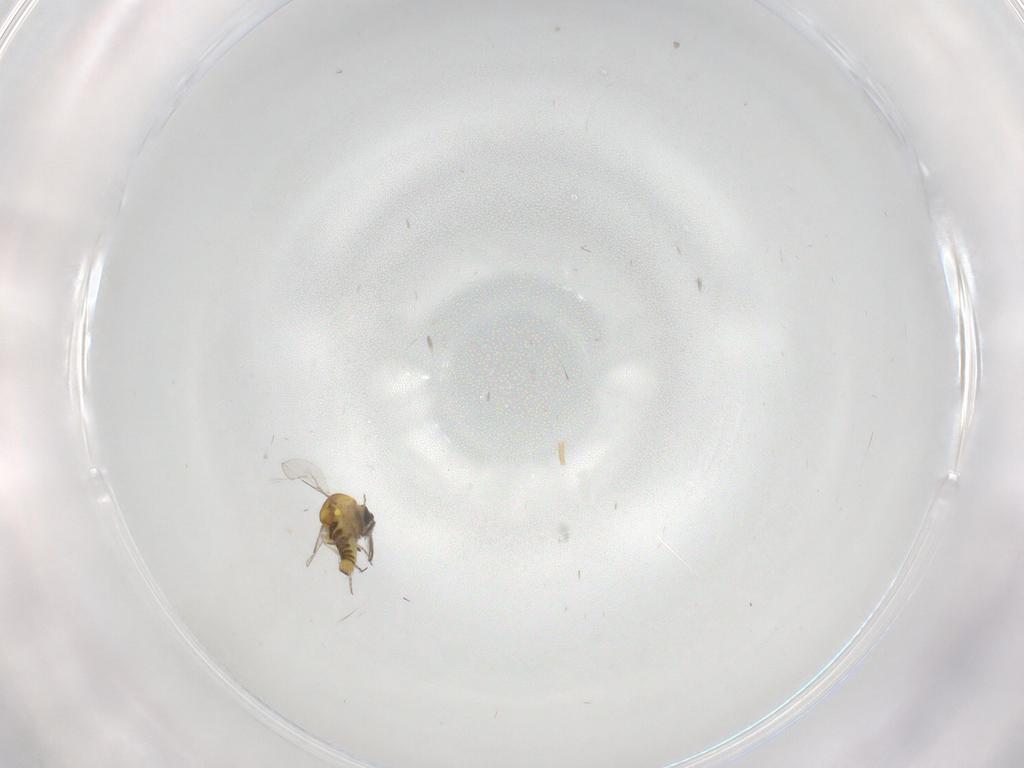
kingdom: Animalia
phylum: Arthropoda
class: Insecta
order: Diptera
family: Ceratopogonidae
